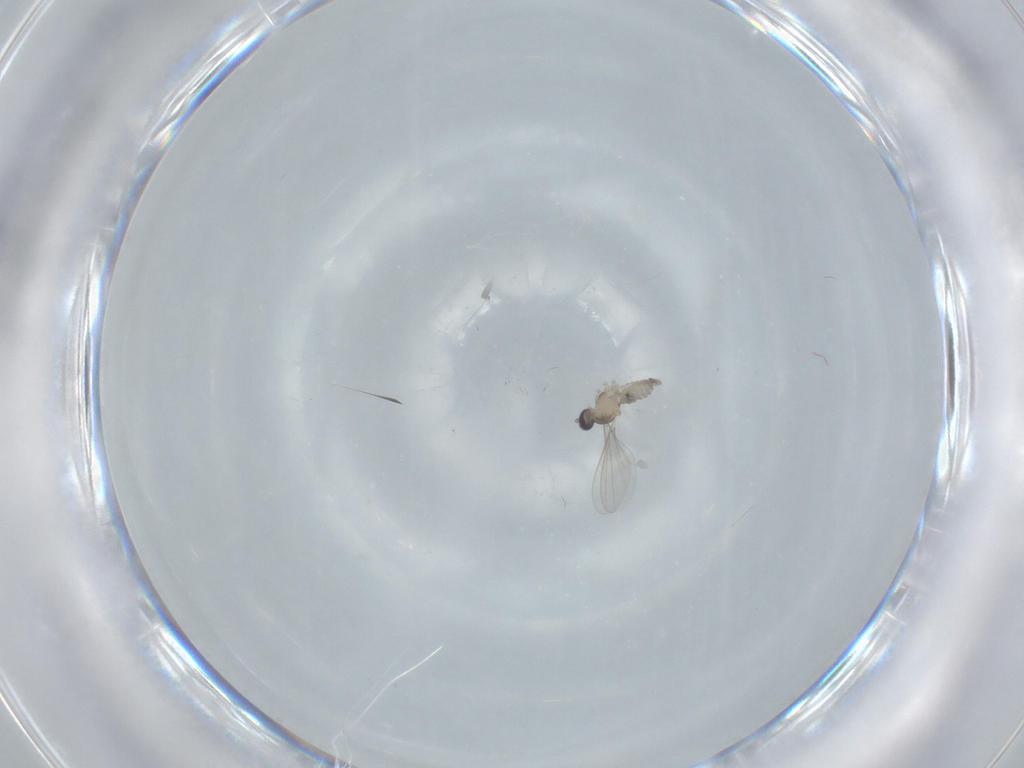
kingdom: Animalia
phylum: Arthropoda
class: Insecta
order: Diptera
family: Cecidomyiidae
